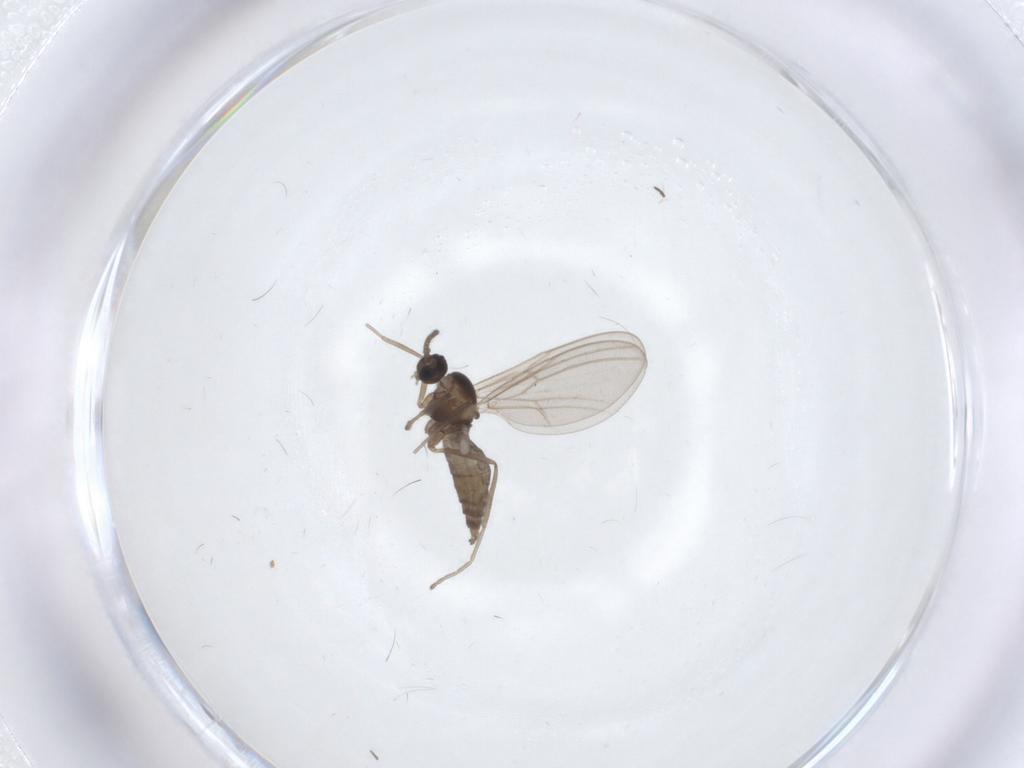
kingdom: Animalia
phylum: Arthropoda
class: Insecta
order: Diptera
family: Cecidomyiidae
